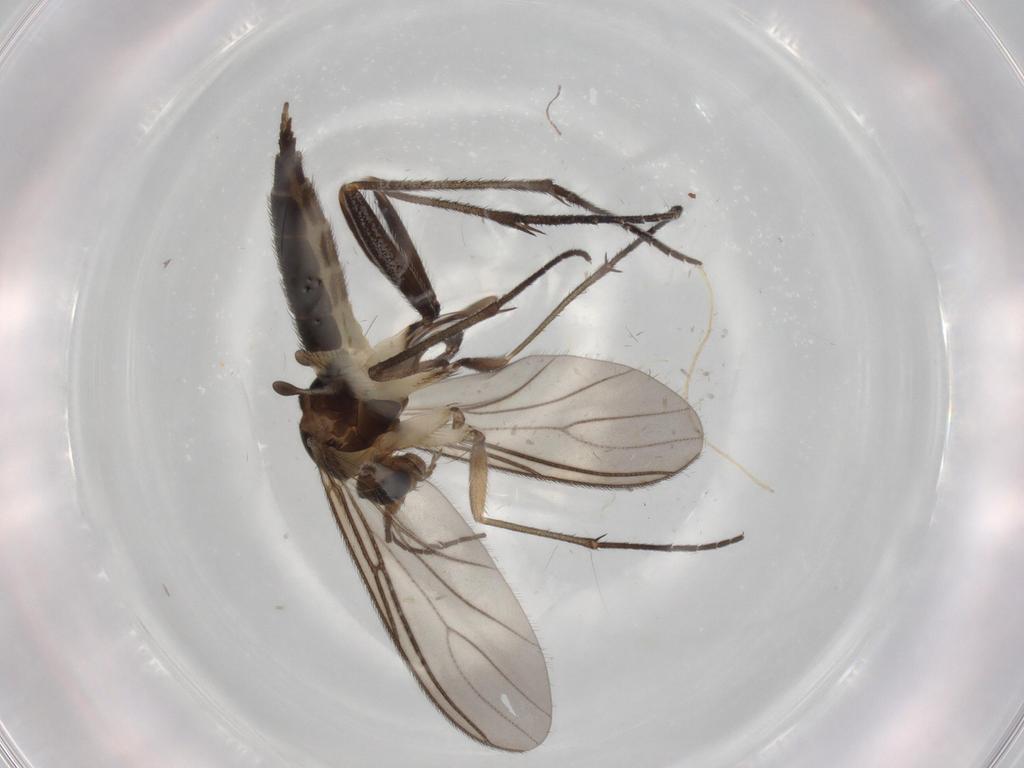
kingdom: Animalia
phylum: Arthropoda
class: Insecta
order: Diptera
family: Sciaridae
